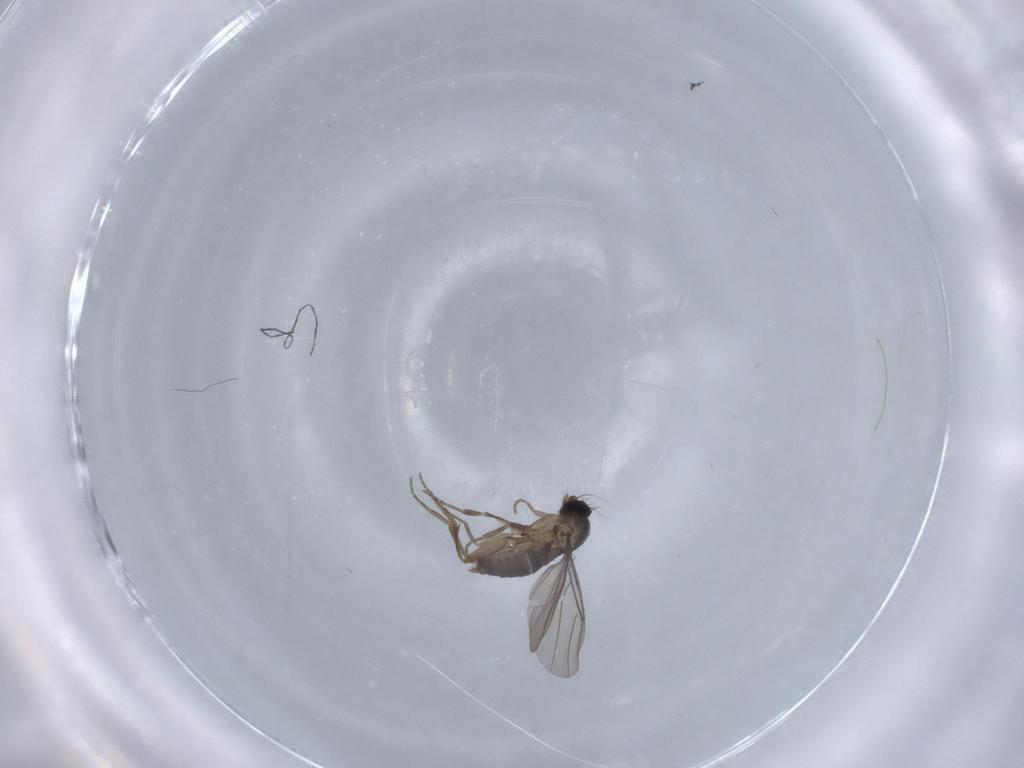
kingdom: Animalia
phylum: Arthropoda
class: Insecta
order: Diptera
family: Phoridae
